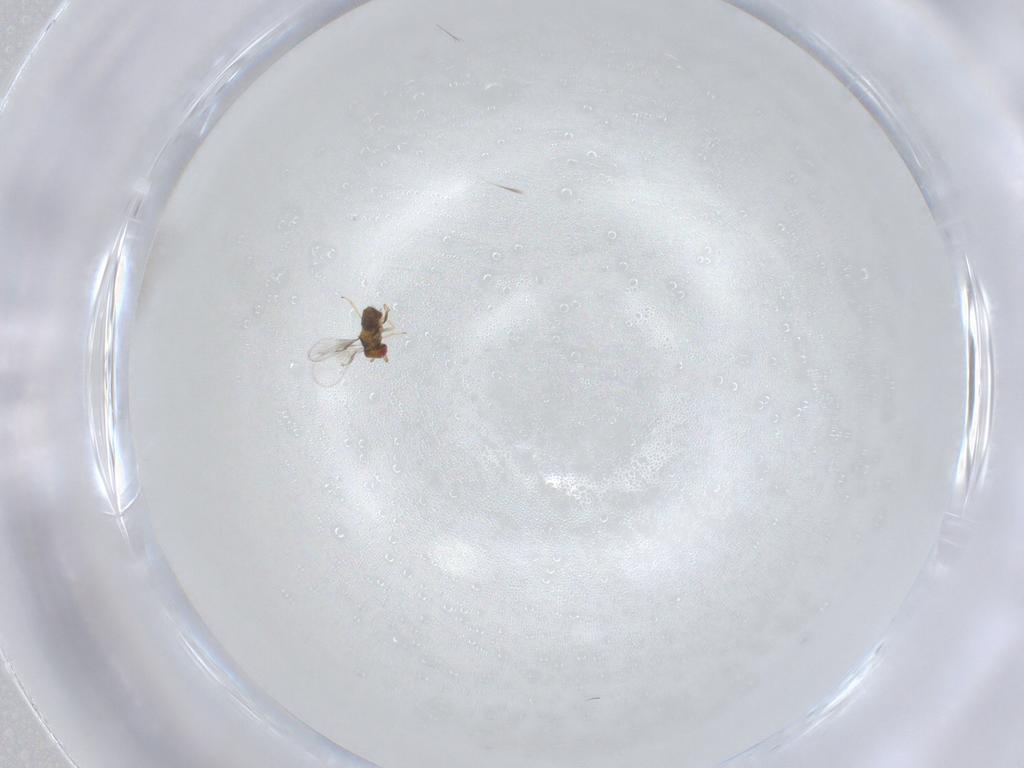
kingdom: Animalia
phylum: Arthropoda
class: Insecta
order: Hymenoptera
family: Trichogrammatidae
